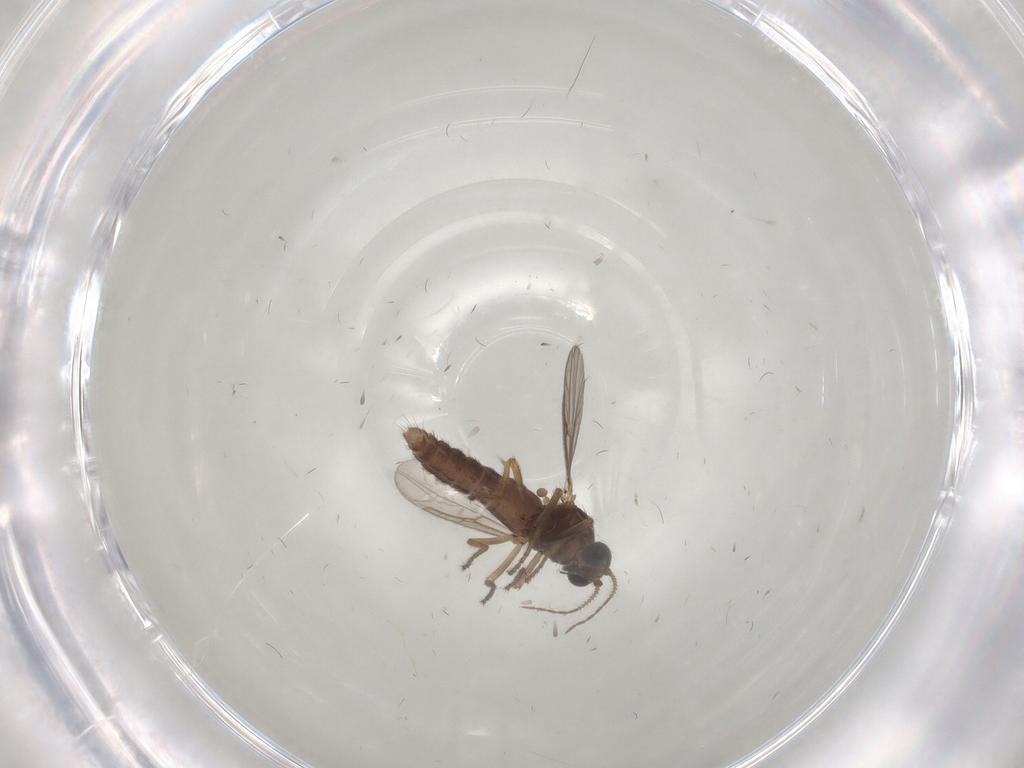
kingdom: Animalia
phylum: Arthropoda
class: Insecta
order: Diptera
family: Ceratopogonidae
